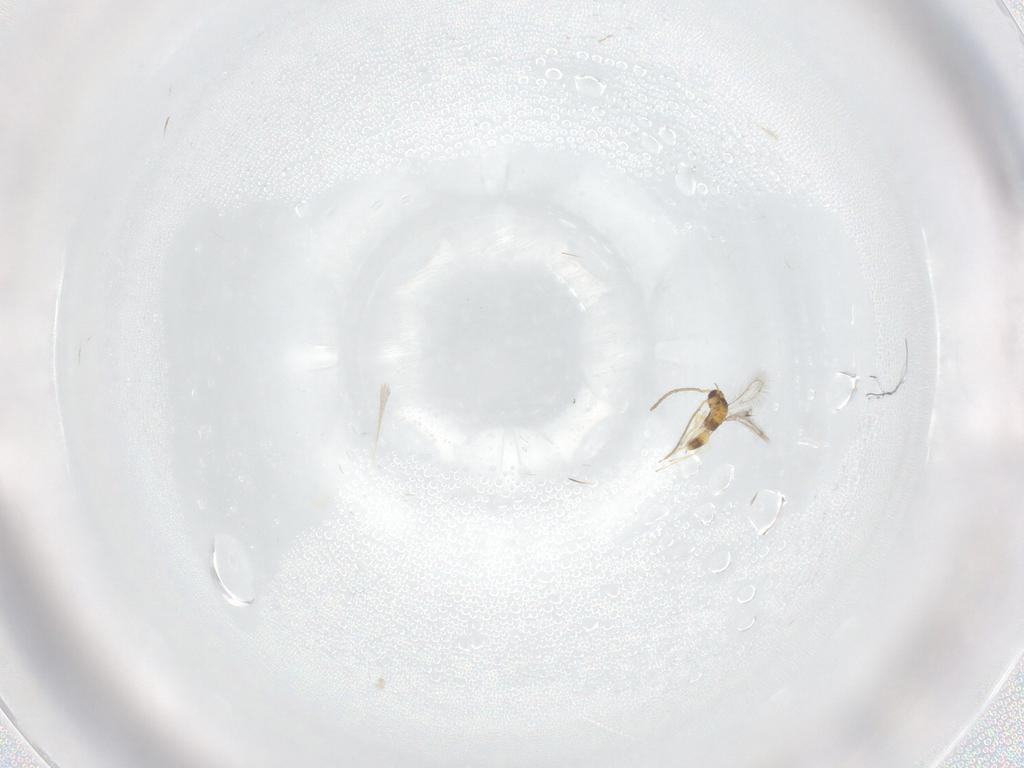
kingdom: Animalia
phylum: Arthropoda
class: Insecta
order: Hymenoptera
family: Mymaridae
